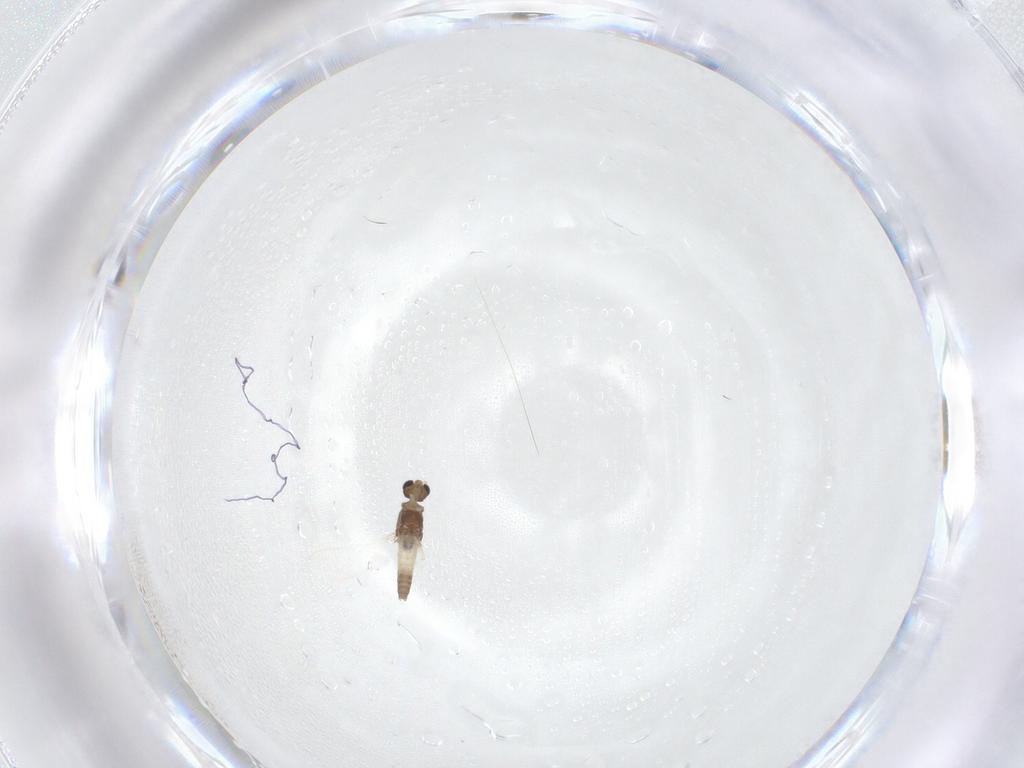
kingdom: Animalia
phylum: Arthropoda
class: Insecta
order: Diptera
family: Chironomidae
